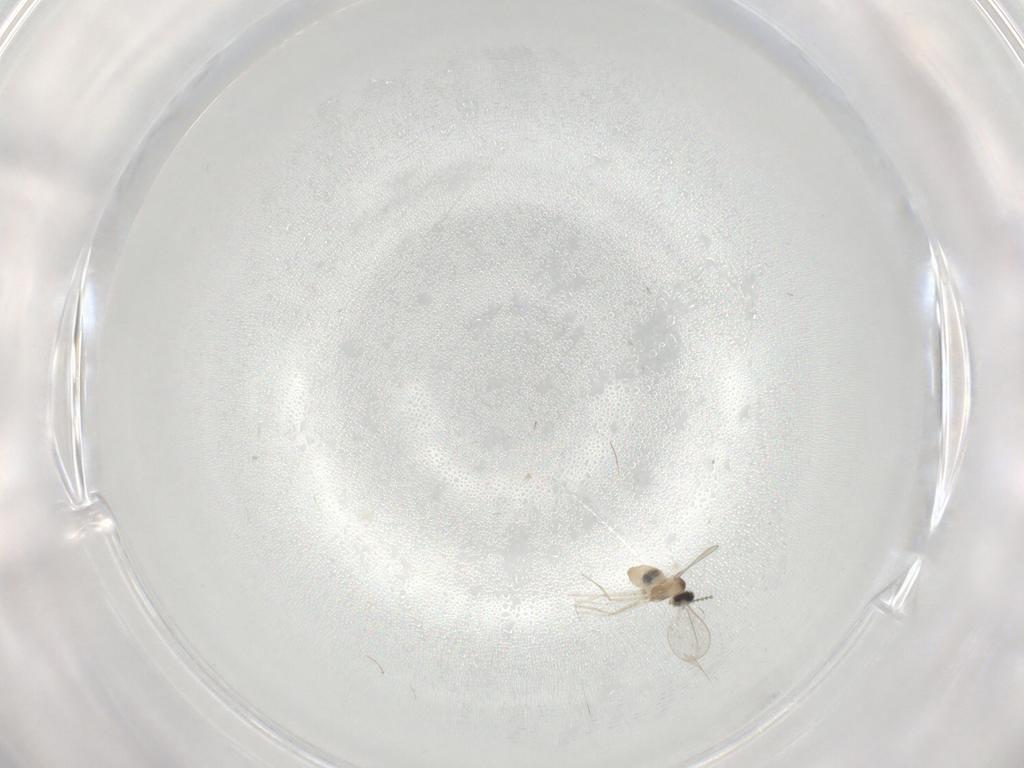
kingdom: Animalia
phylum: Arthropoda
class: Insecta
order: Diptera
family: Cecidomyiidae
